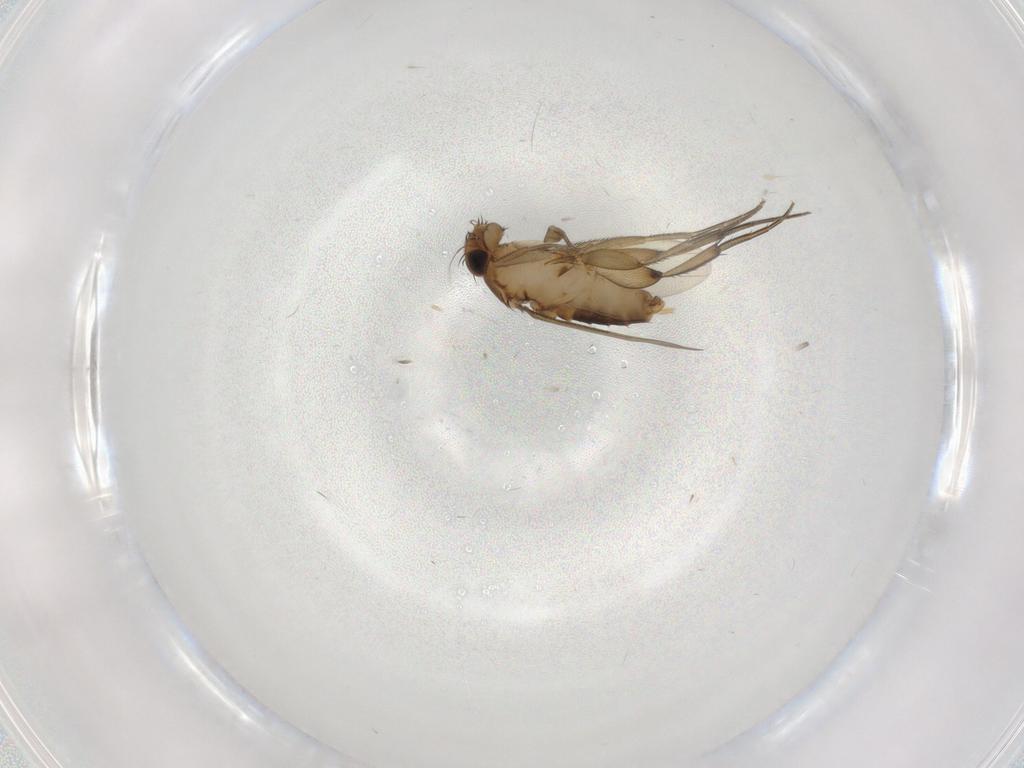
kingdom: Animalia
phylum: Arthropoda
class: Insecta
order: Diptera
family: Phoridae
